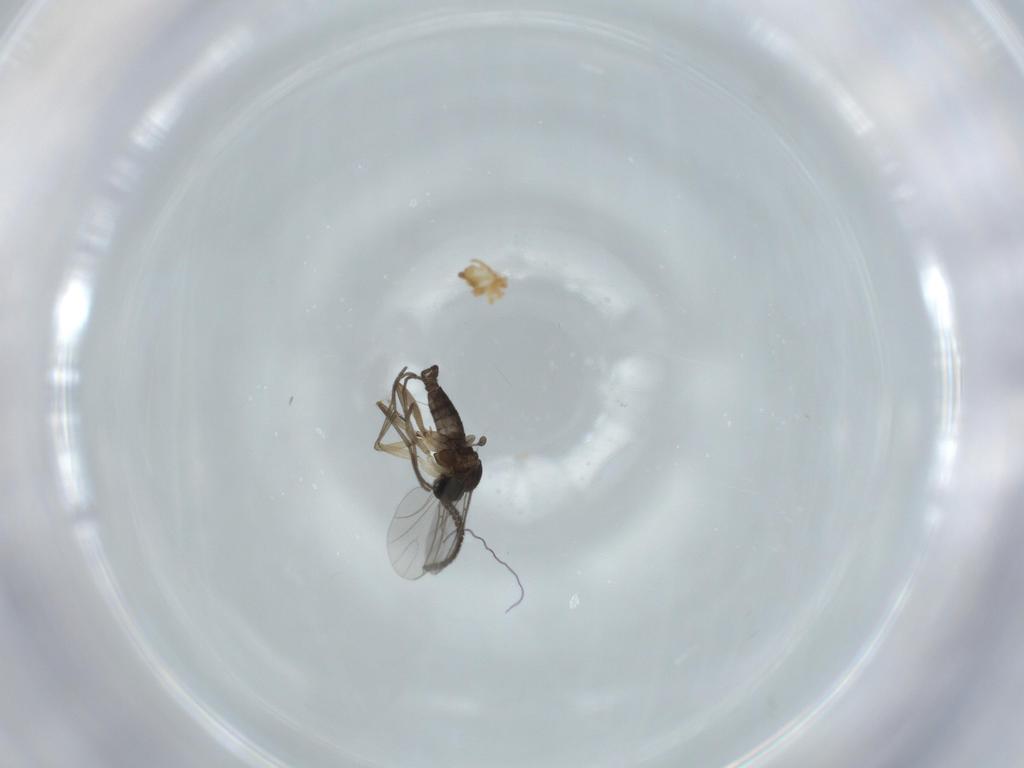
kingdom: Animalia
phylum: Arthropoda
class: Insecta
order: Diptera
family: Sciaridae
